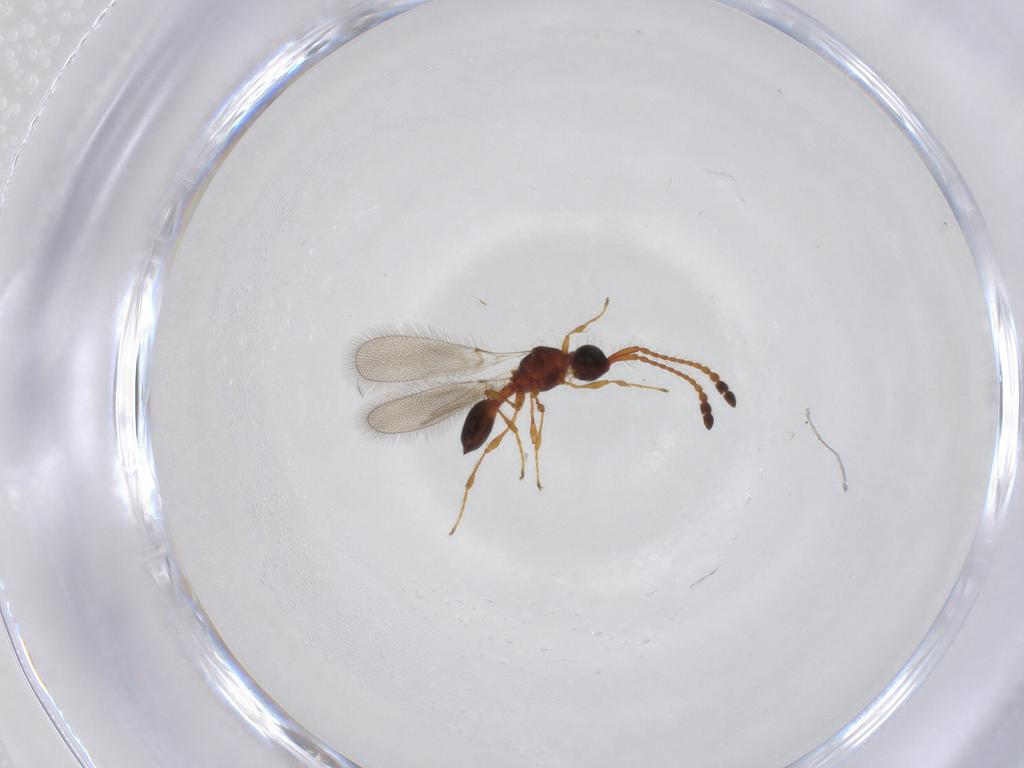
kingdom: Animalia
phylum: Arthropoda
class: Insecta
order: Hymenoptera
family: Diapriidae
